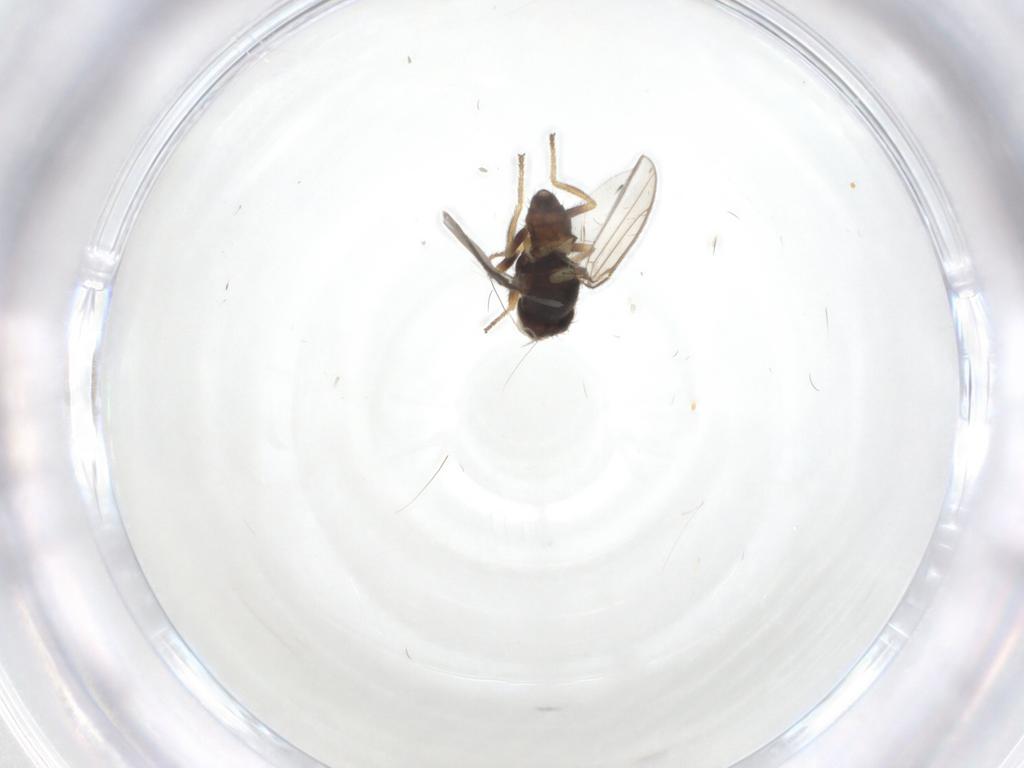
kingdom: Animalia
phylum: Arthropoda
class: Insecta
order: Diptera
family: Chloropidae
